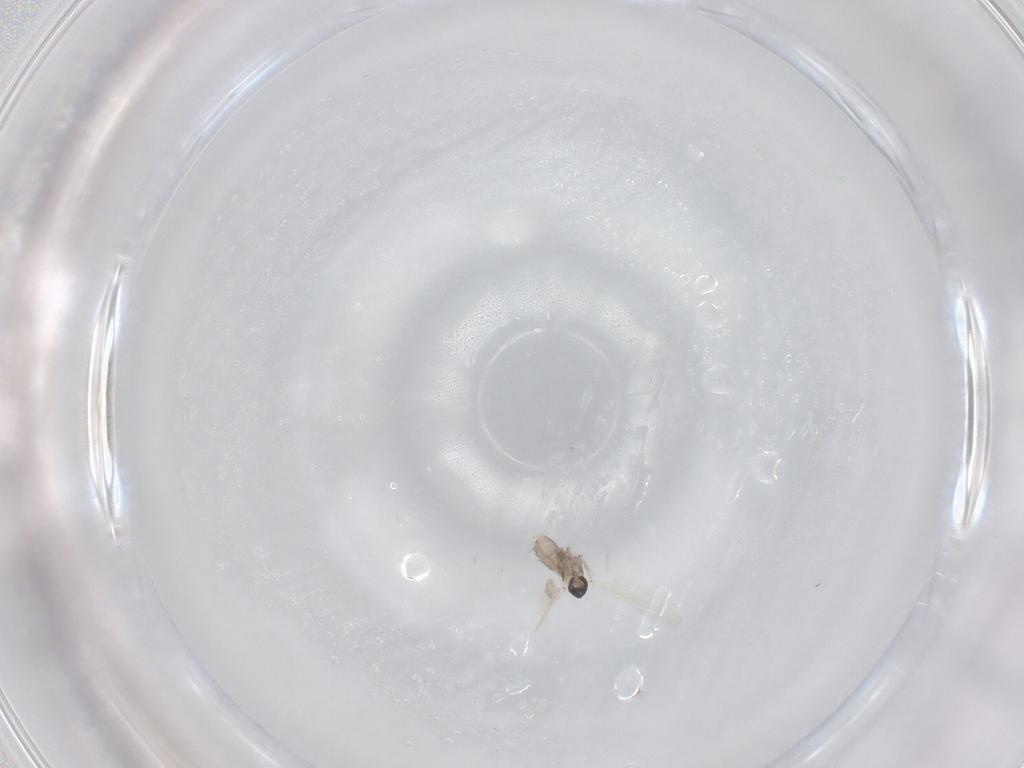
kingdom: Animalia
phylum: Arthropoda
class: Insecta
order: Diptera
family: Cecidomyiidae
